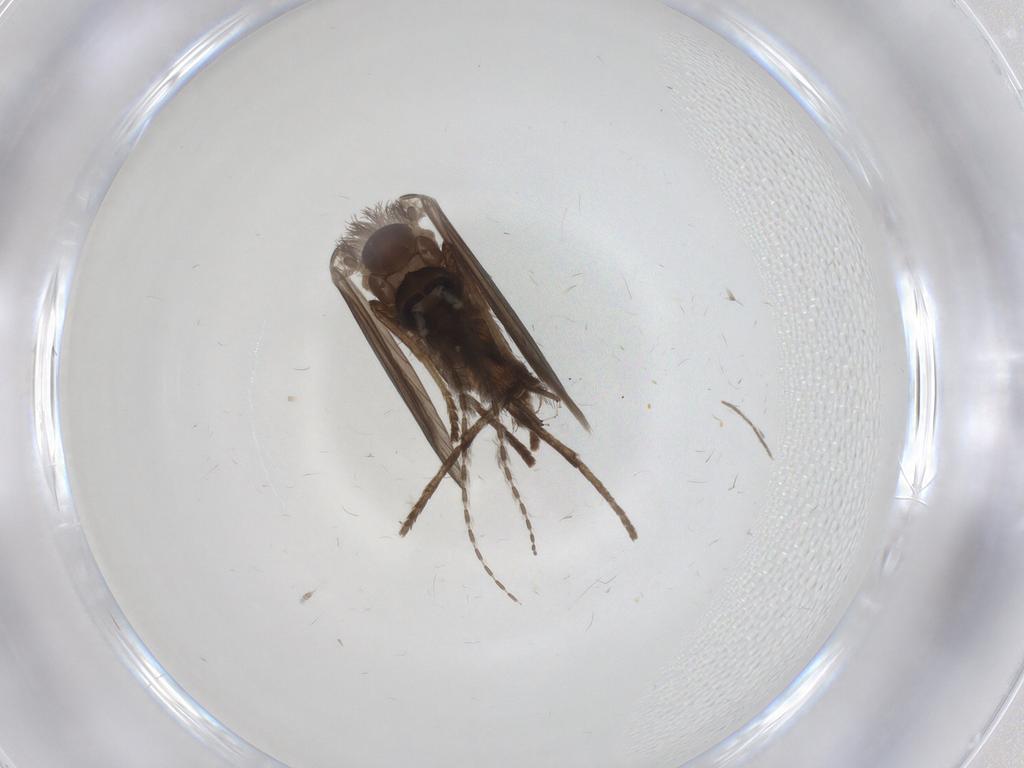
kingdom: Animalia
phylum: Arthropoda
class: Insecta
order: Diptera
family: Psychodidae
